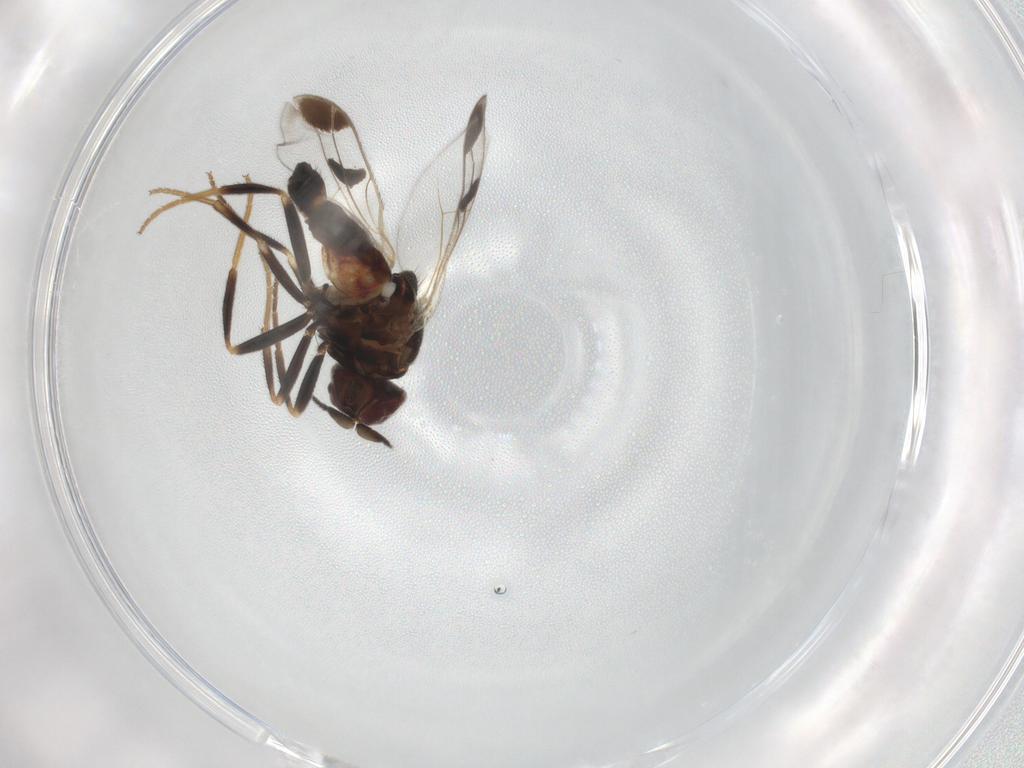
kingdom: Animalia
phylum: Arthropoda
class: Insecta
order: Diptera
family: Chloropidae
